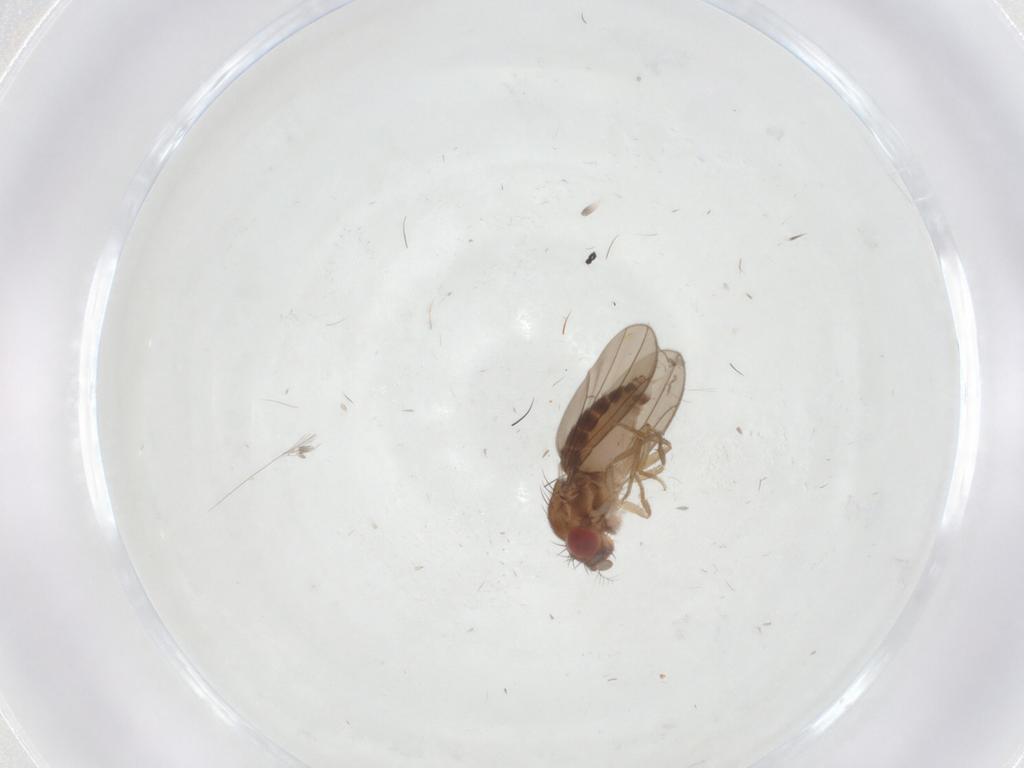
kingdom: Animalia
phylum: Arthropoda
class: Insecta
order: Diptera
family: Drosophilidae
